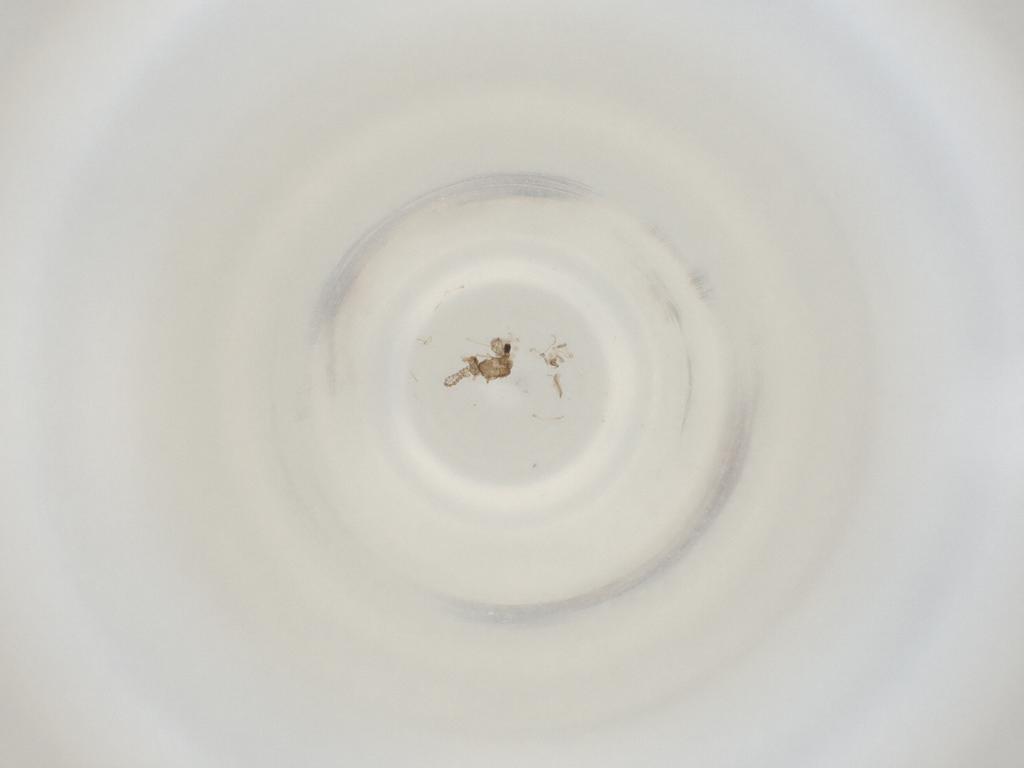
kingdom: Animalia
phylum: Arthropoda
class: Insecta
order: Diptera
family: Cecidomyiidae
